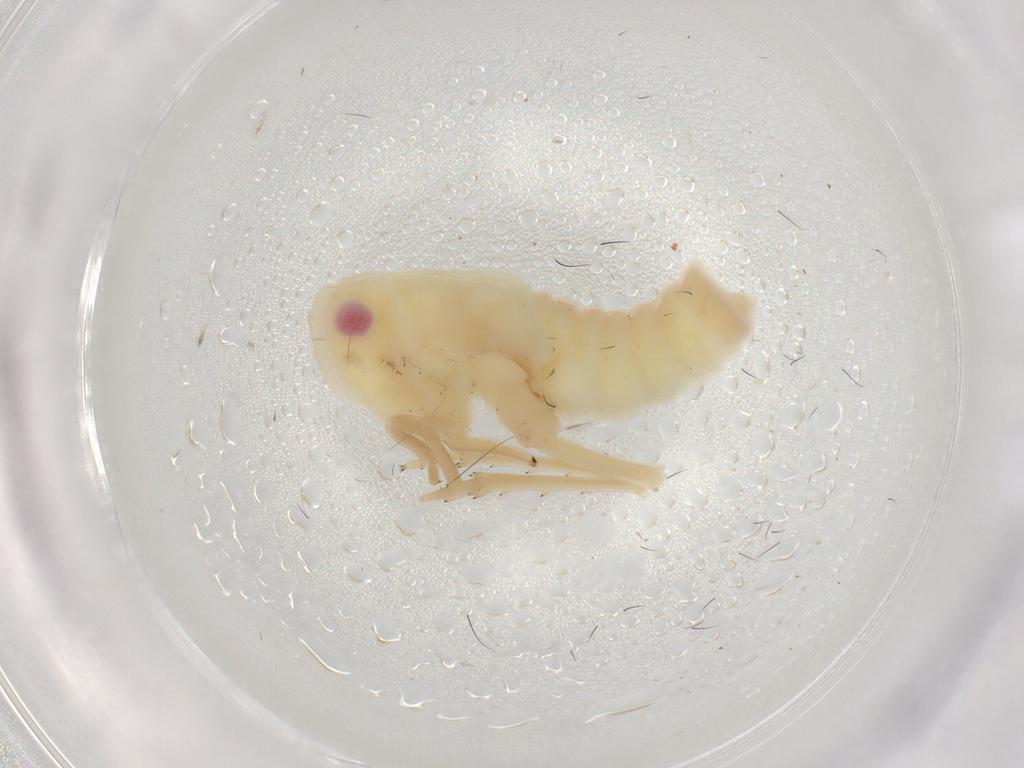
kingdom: Animalia
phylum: Arthropoda
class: Insecta
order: Hemiptera
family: Tropiduchidae
